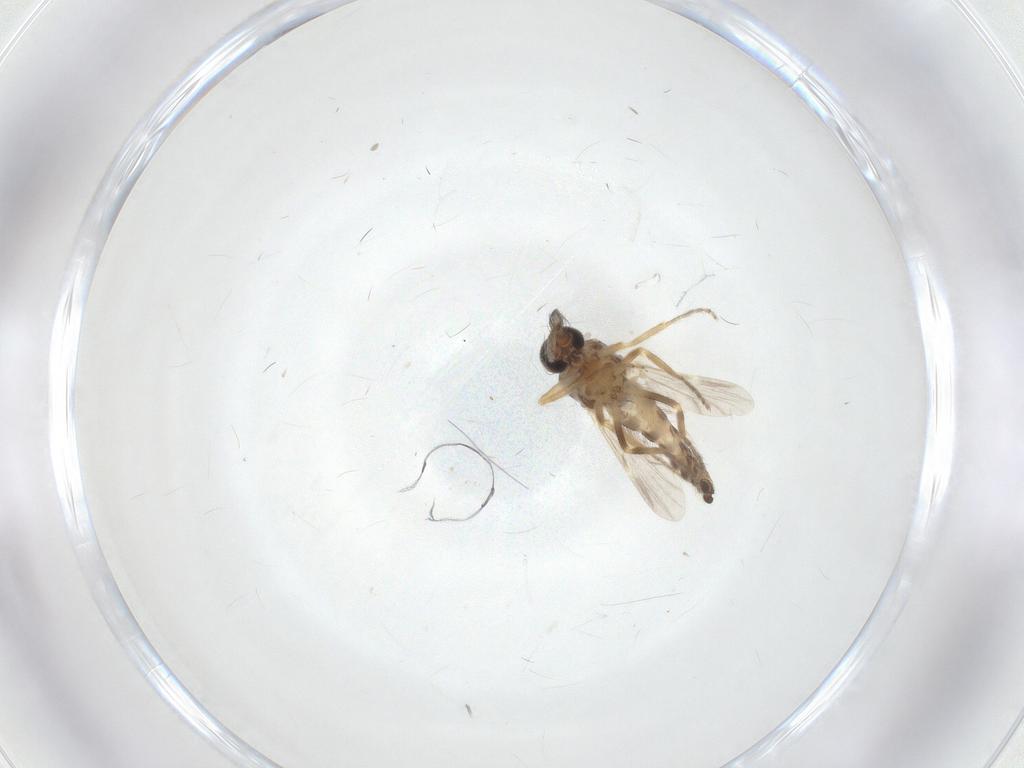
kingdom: Animalia
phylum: Arthropoda
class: Insecta
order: Diptera
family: Ceratopogonidae
